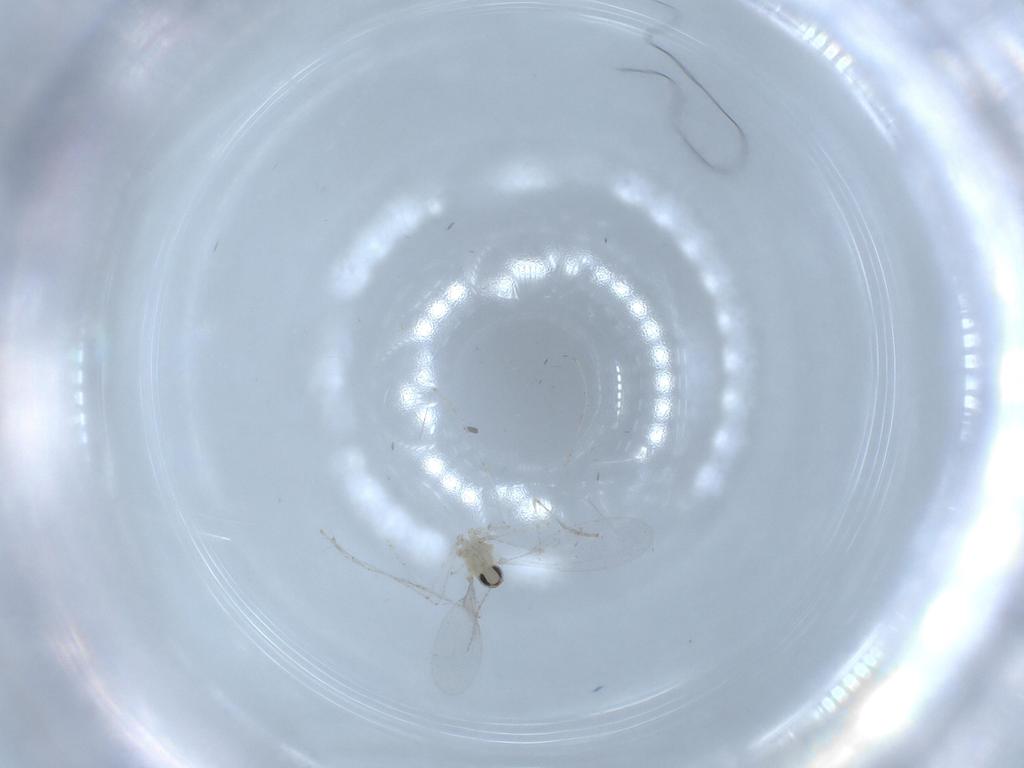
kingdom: Animalia
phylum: Arthropoda
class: Insecta
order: Diptera
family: Cecidomyiidae
